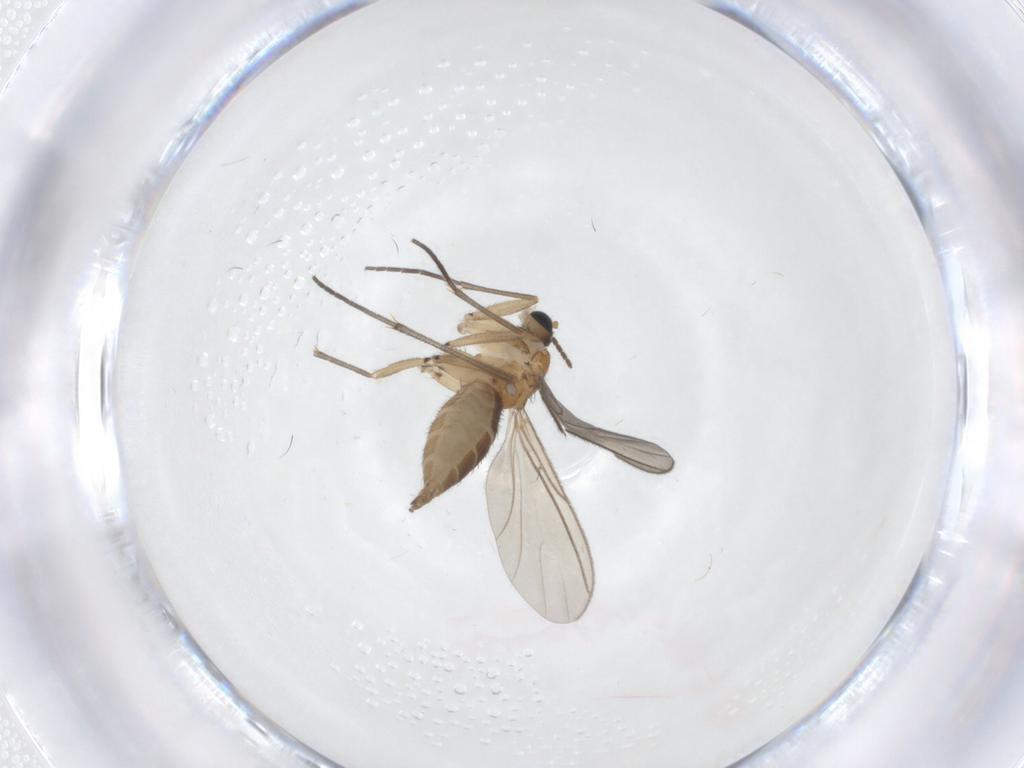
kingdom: Animalia
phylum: Arthropoda
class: Insecta
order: Diptera
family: Sciaridae
